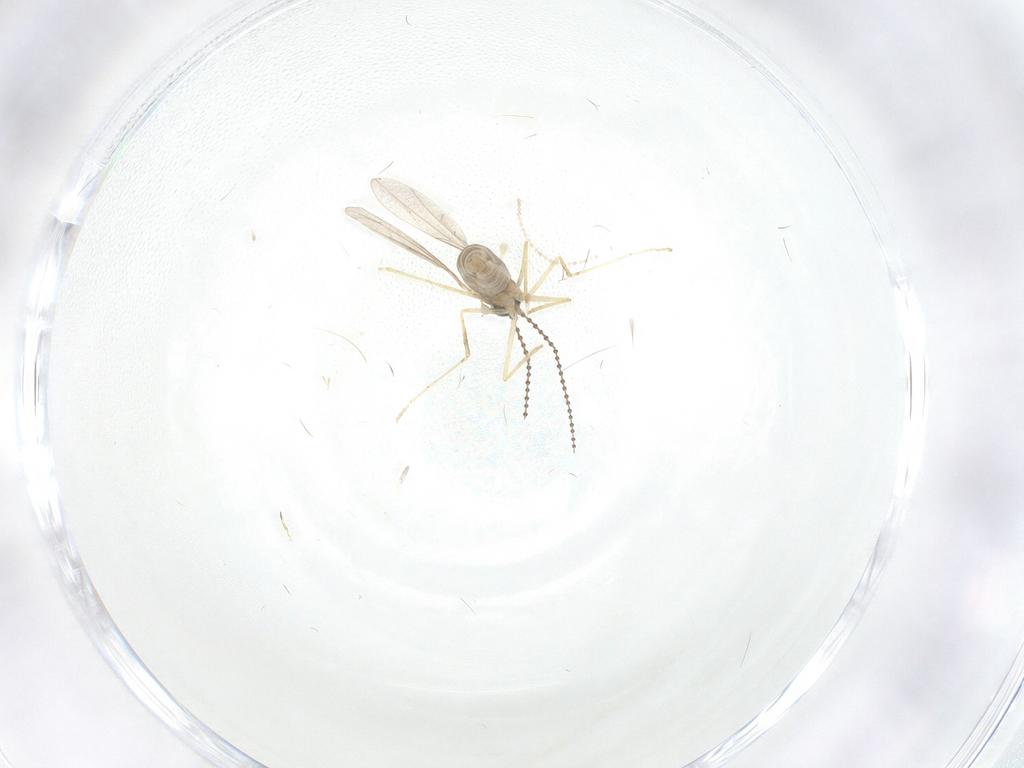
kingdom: Animalia
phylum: Arthropoda
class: Insecta
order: Diptera
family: Cecidomyiidae
